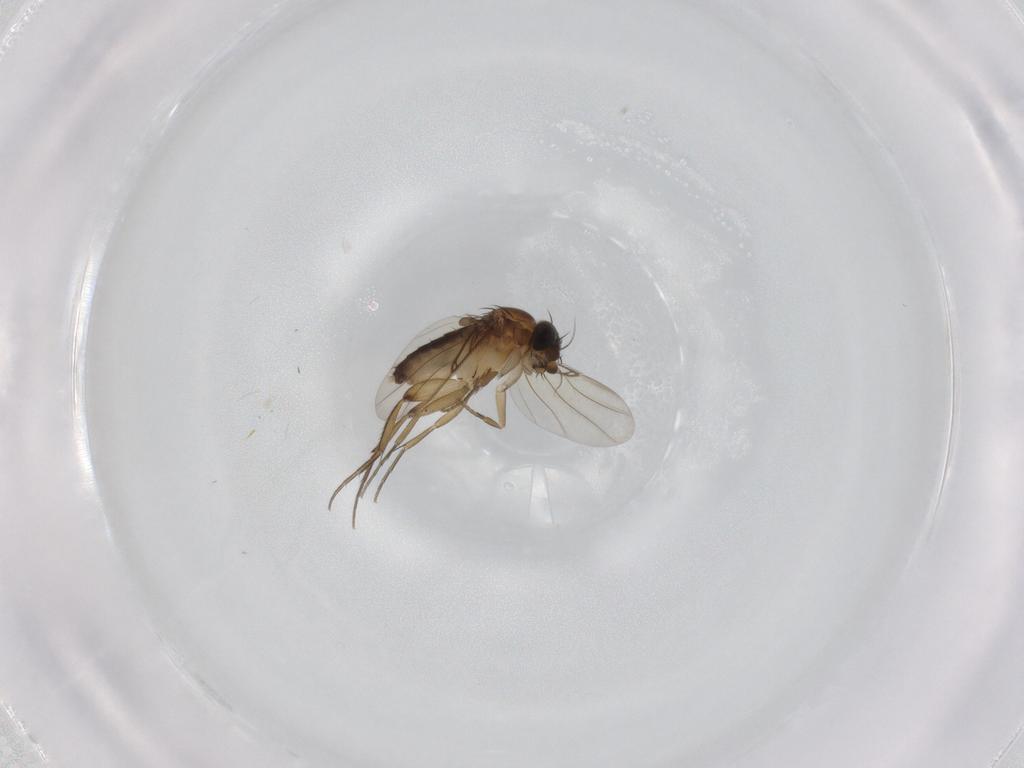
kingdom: Animalia
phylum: Arthropoda
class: Insecta
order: Diptera
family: Phoridae
